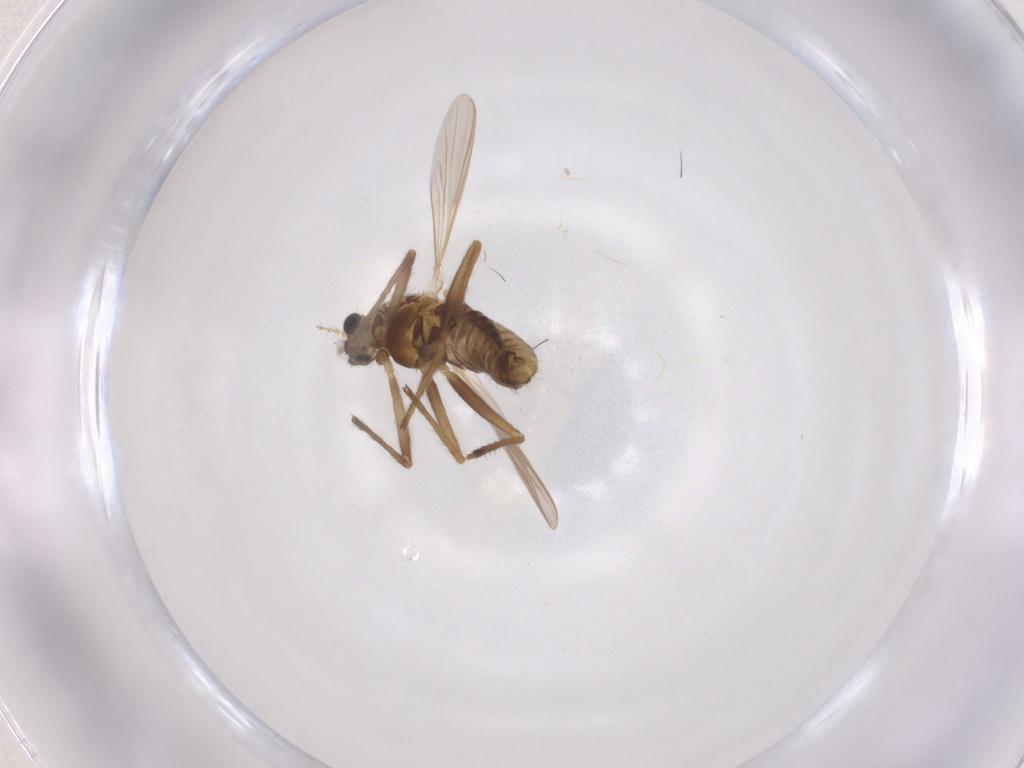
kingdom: Animalia
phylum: Arthropoda
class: Insecta
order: Diptera
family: Chironomidae
